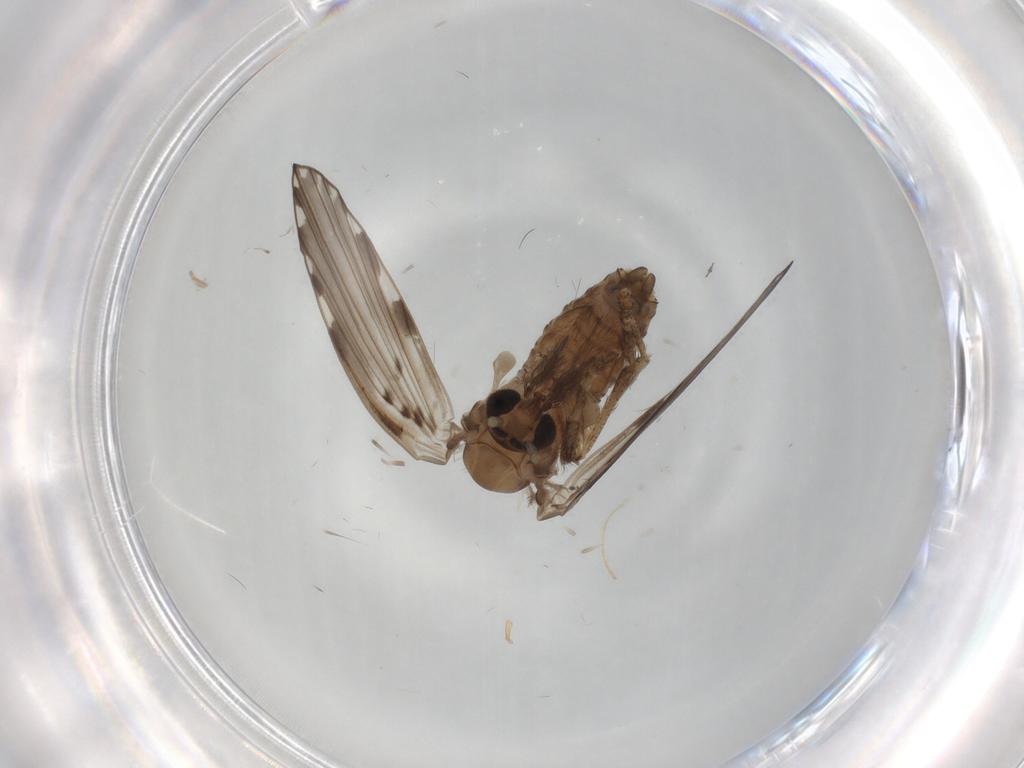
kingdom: Animalia
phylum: Arthropoda
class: Insecta
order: Diptera
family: Psychodidae
